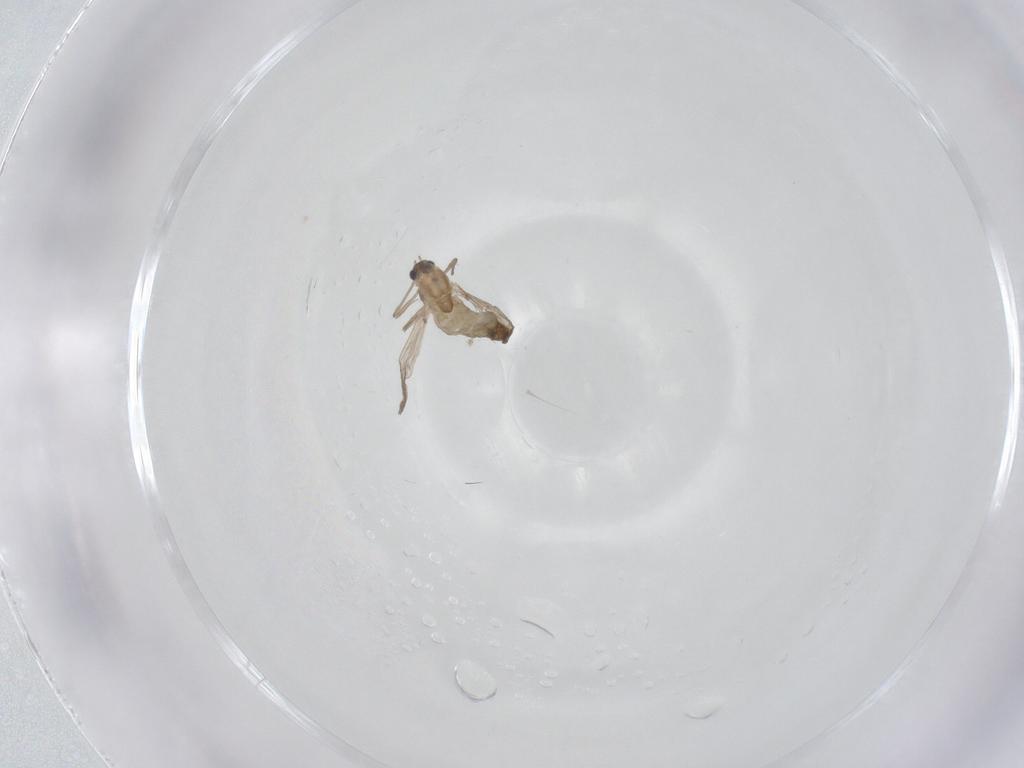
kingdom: Animalia
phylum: Arthropoda
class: Insecta
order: Diptera
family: Chironomidae
